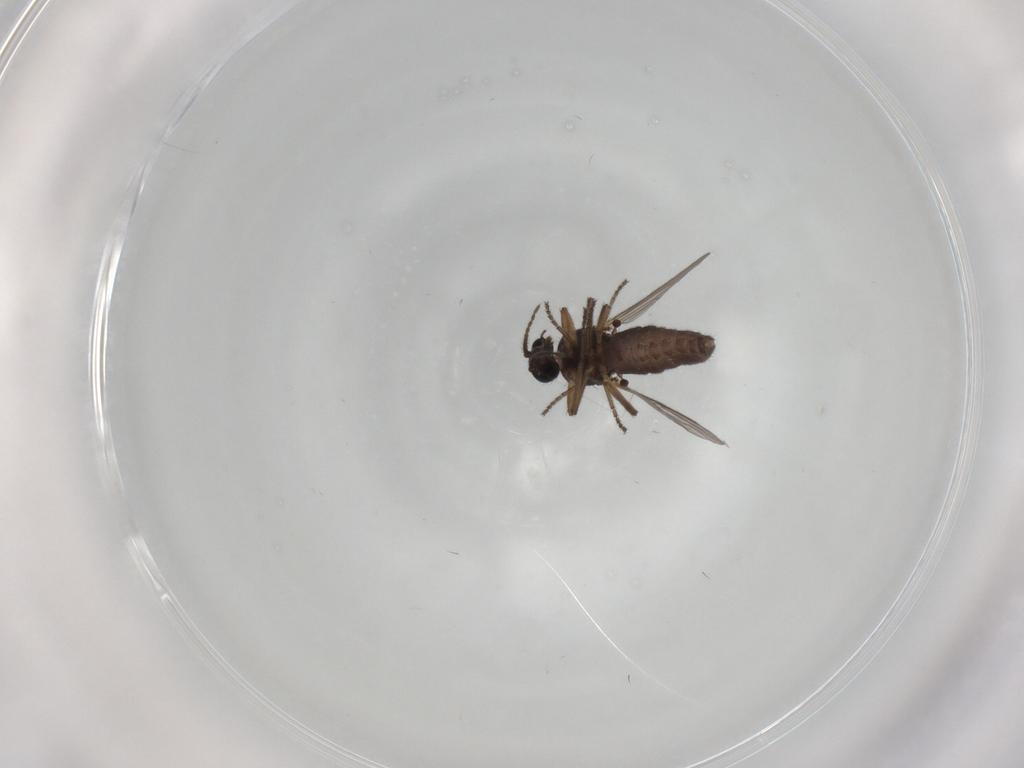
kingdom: Animalia
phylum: Arthropoda
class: Insecta
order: Diptera
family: Ceratopogonidae
